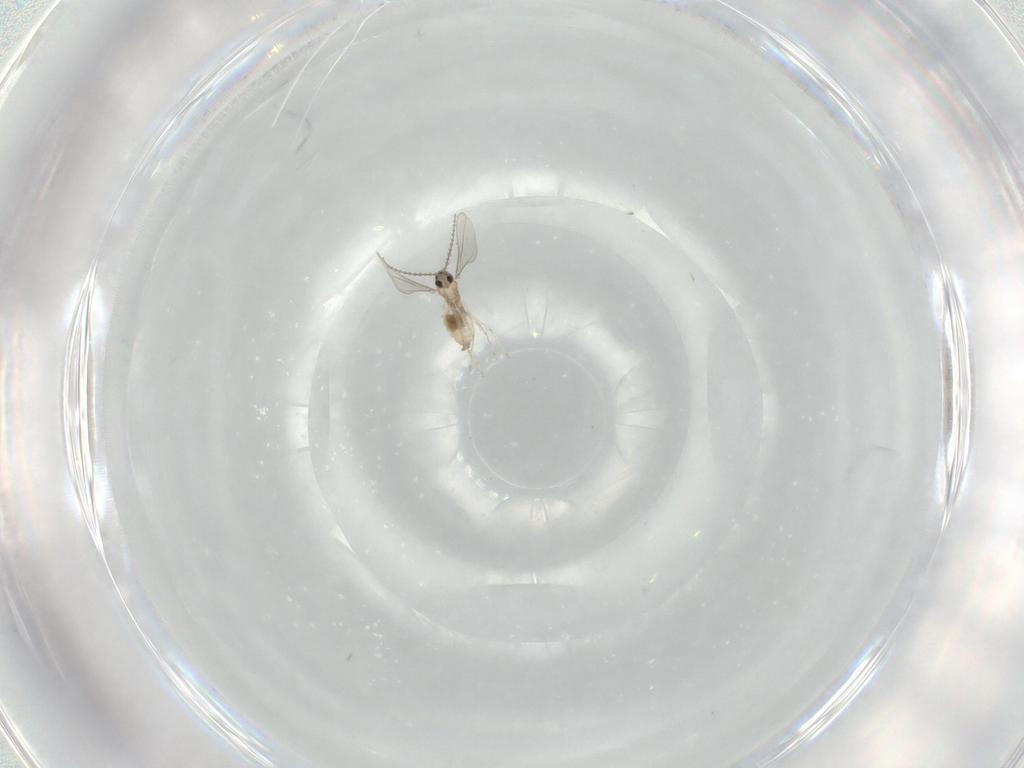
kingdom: Animalia
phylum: Arthropoda
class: Insecta
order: Diptera
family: Cecidomyiidae
